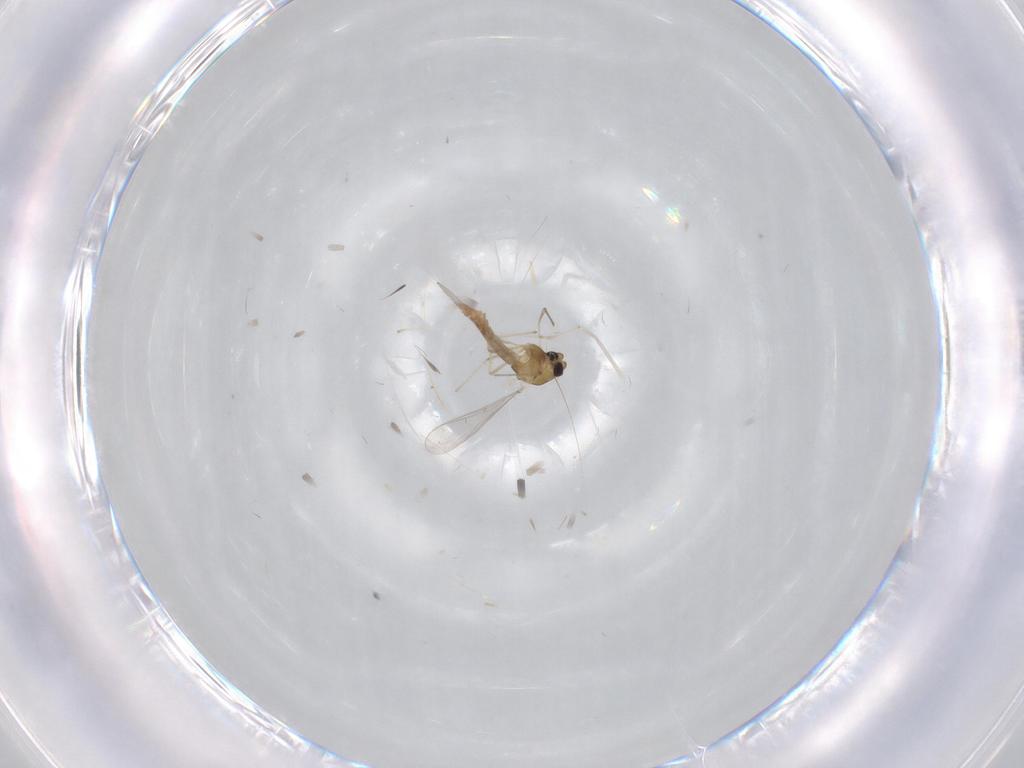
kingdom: Animalia
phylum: Arthropoda
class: Insecta
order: Diptera
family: Chironomidae
